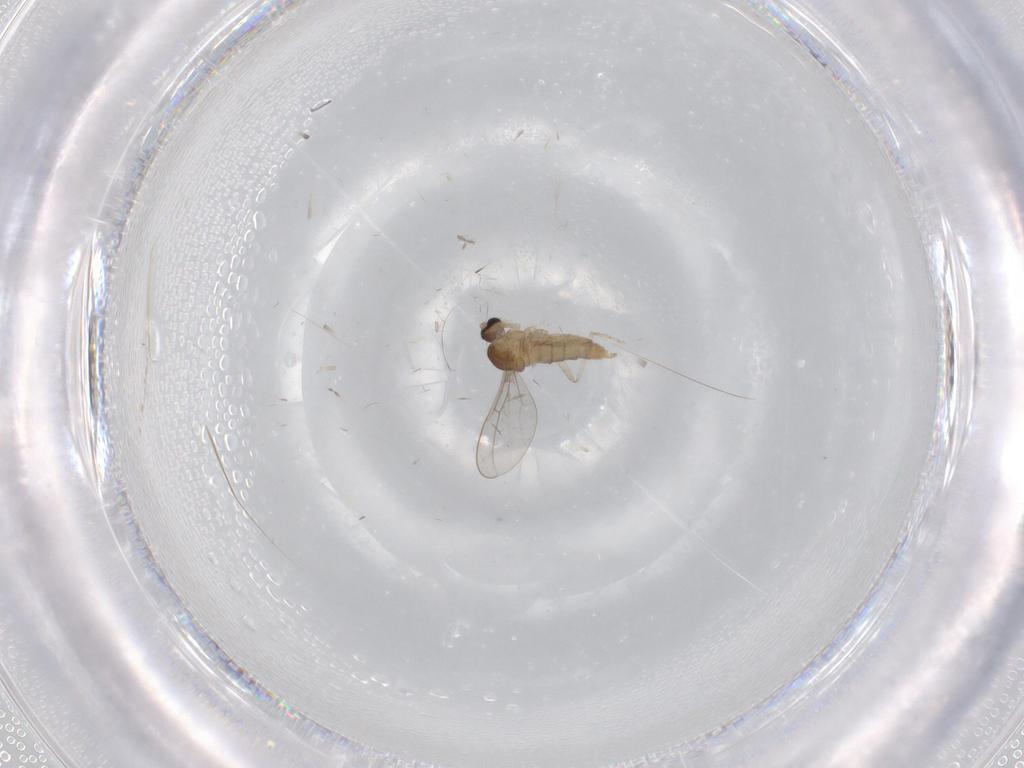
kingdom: Animalia
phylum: Arthropoda
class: Insecta
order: Diptera
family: Cecidomyiidae
